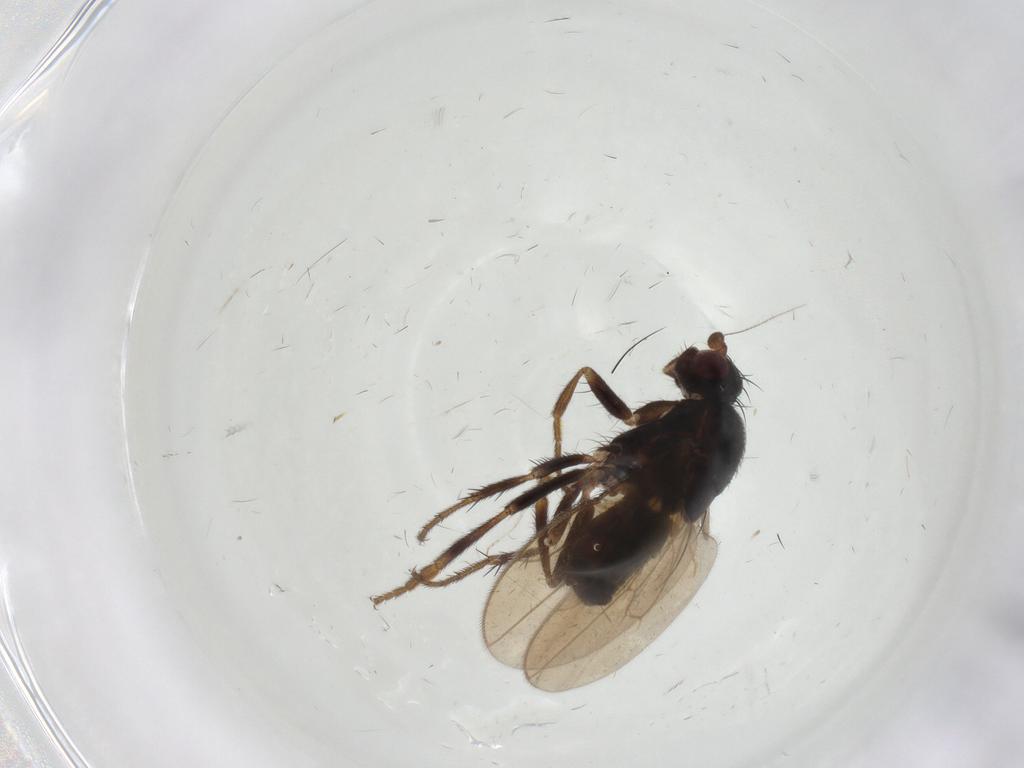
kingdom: Animalia
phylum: Arthropoda
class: Insecta
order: Diptera
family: Sphaeroceridae
